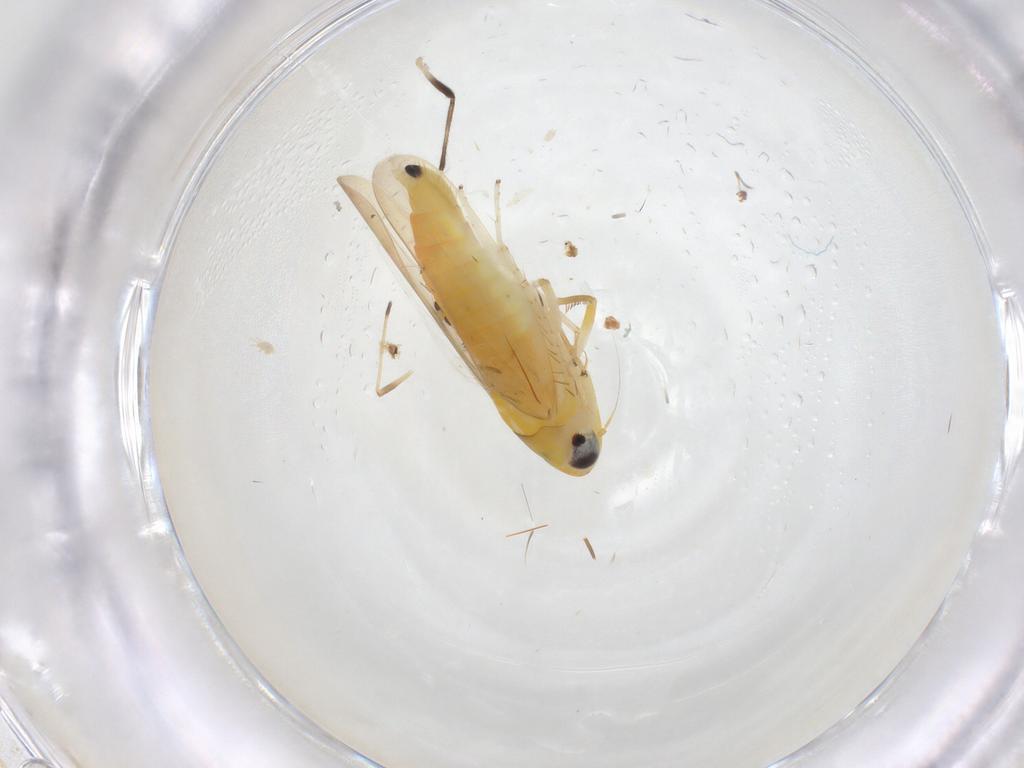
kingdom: Animalia
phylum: Arthropoda
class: Insecta
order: Hemiptera
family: Cicadellidae
